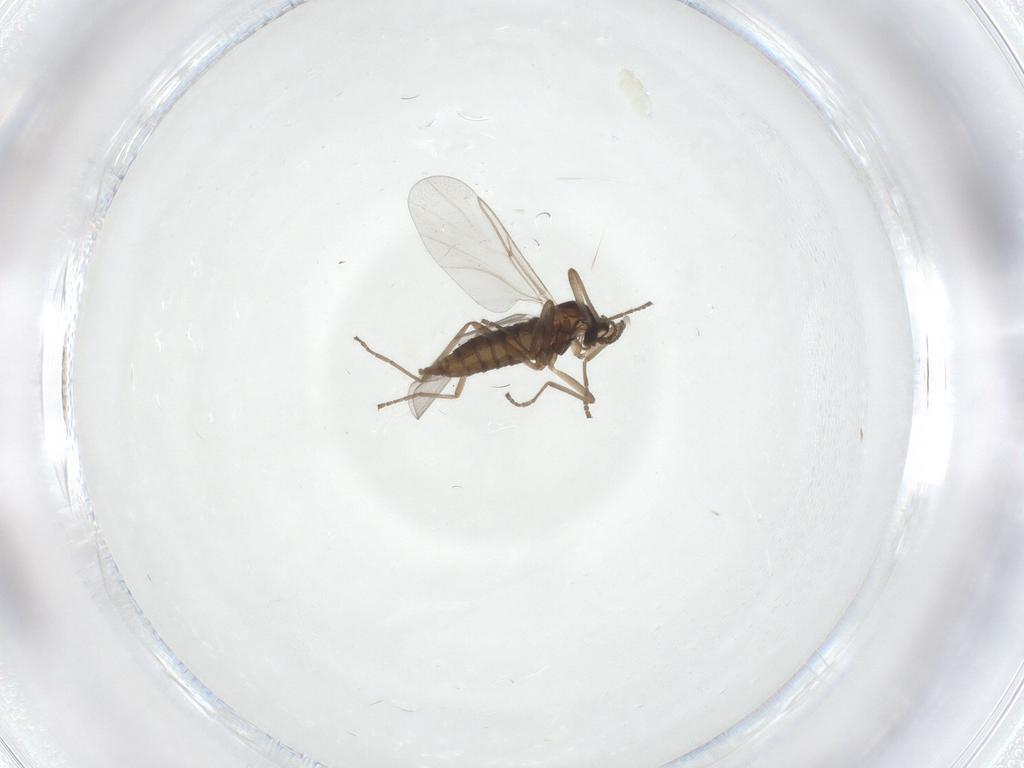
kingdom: Animalia
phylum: Arthropoda
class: Insecta
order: Diptera
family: Cecidomyiidae
